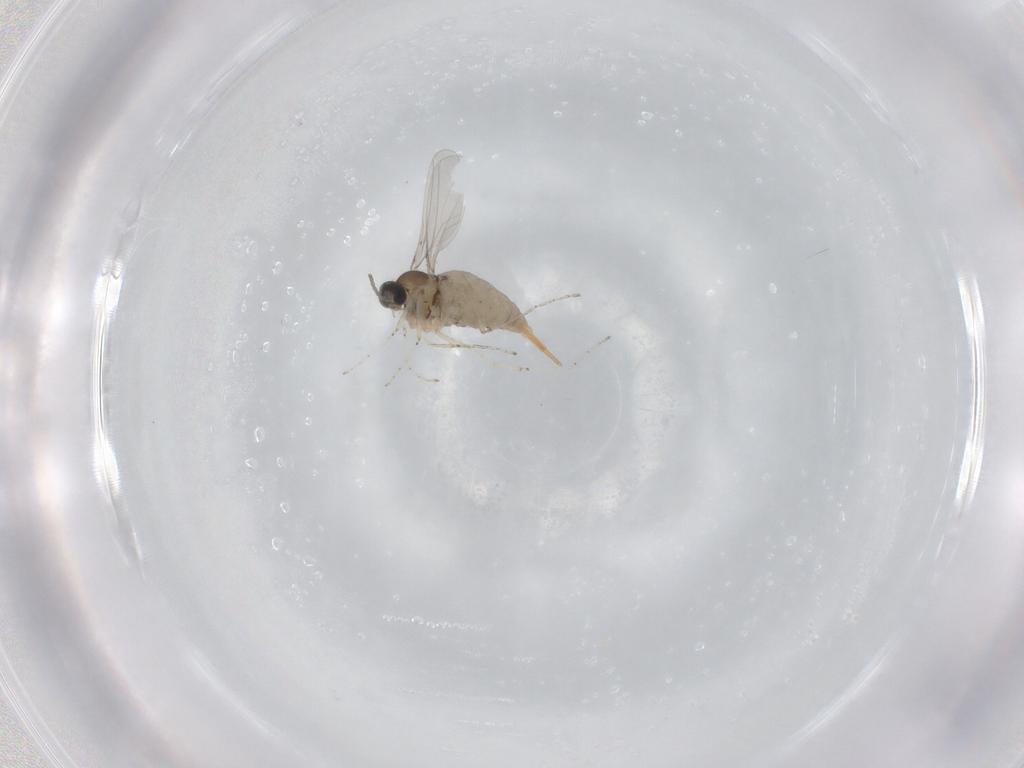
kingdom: Animalia
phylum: Arthropoda
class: Insecta
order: Diptera
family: Cecidomyiidae
